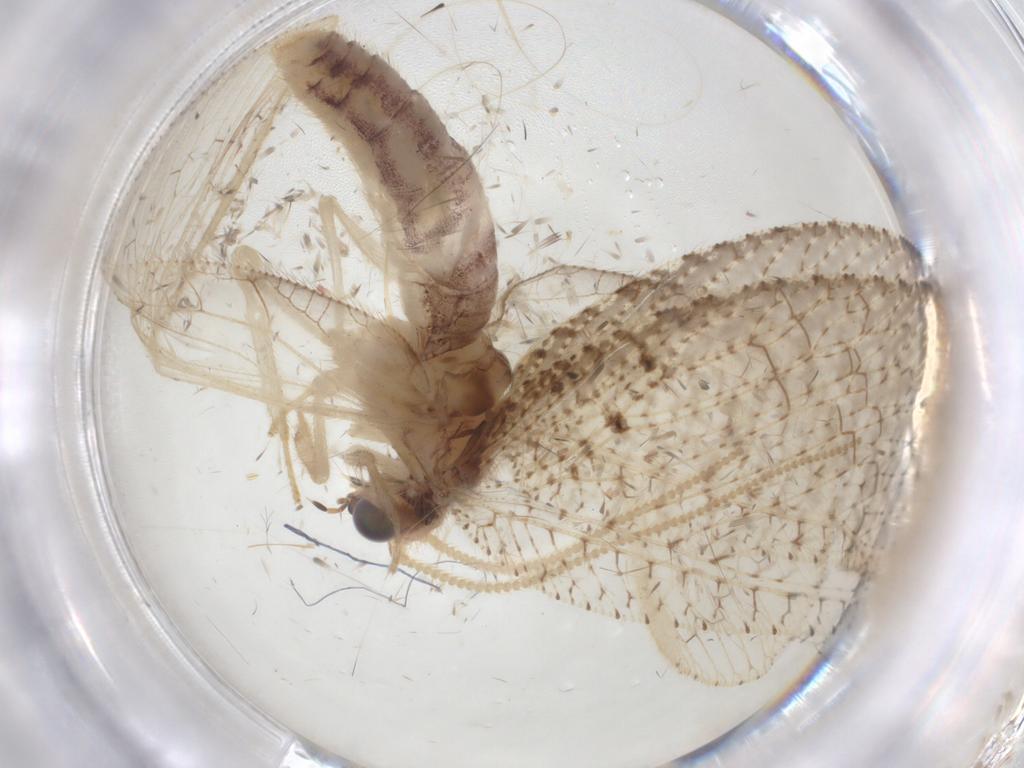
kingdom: Animalia
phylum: Arthropoda
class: Insecta
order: Neuroptera
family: Hemerobiidae
